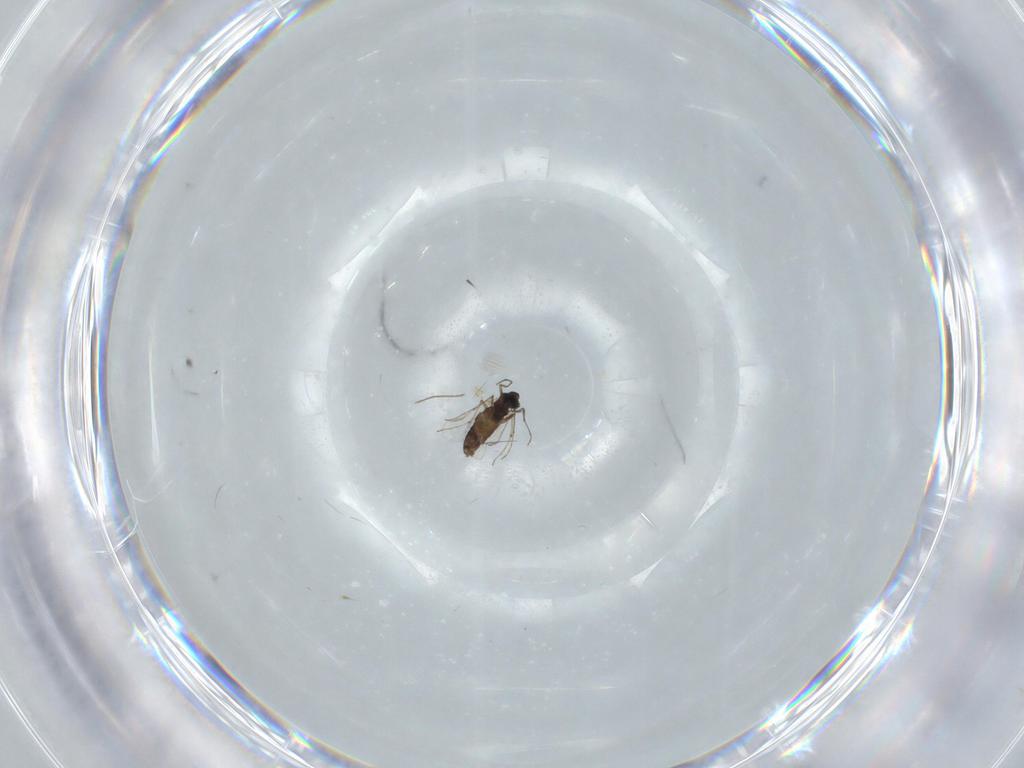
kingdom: Animalia
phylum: Arthropoda
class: Insecta
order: Diptera
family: Chironomidae
